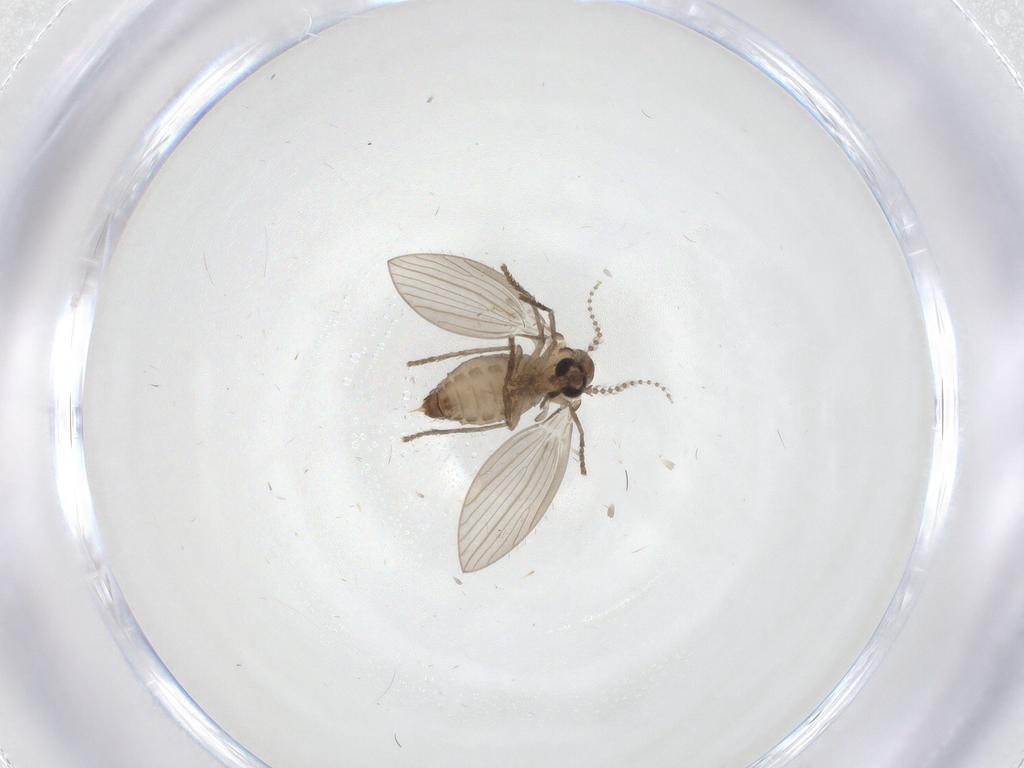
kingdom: Animalia
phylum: Arthropoda
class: Insecta
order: Diptera
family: Psychodidae
